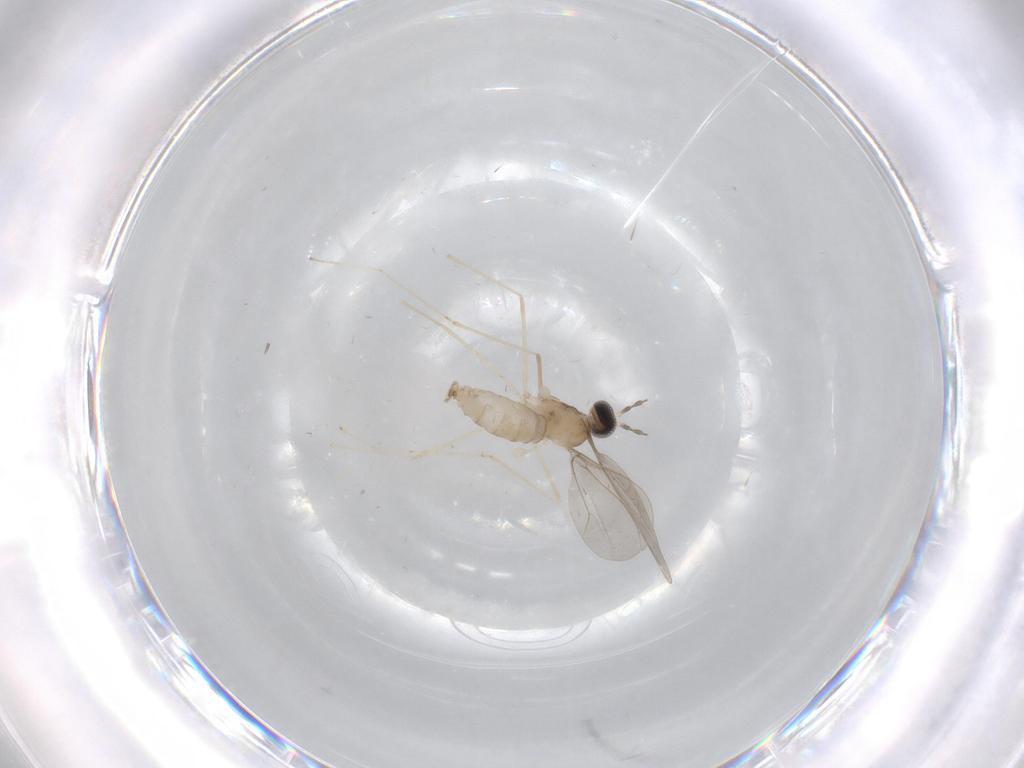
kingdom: Animalia
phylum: Arthropoda
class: Insecta
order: Diptera
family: Cecidomyiidae
